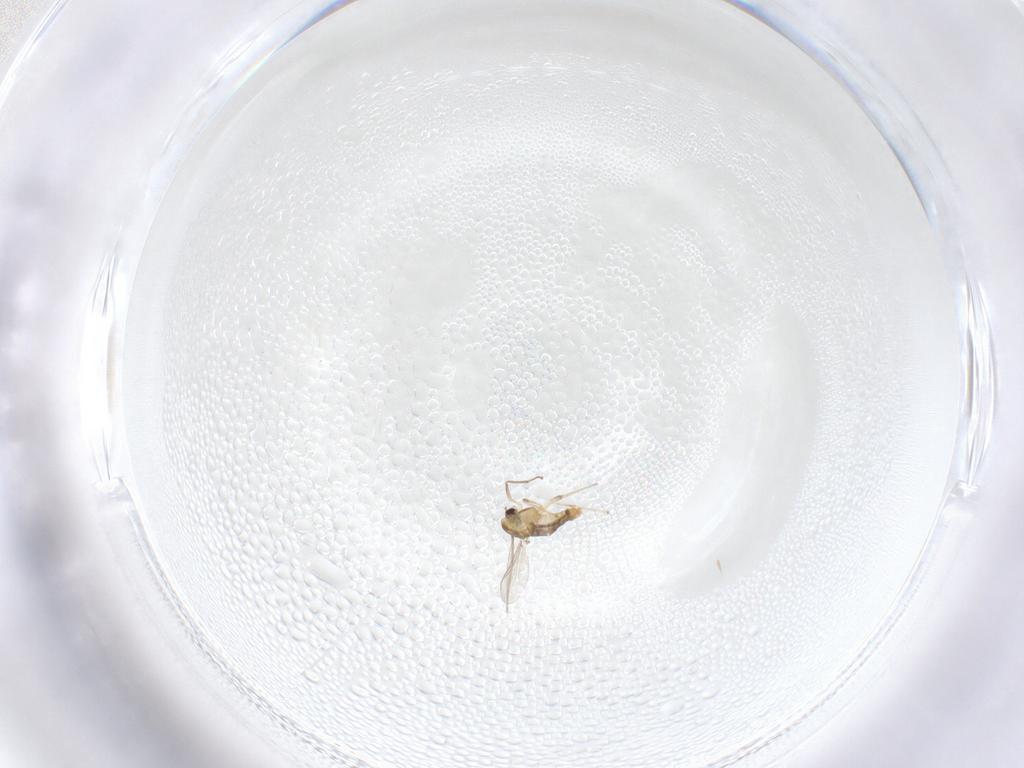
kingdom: Animalia
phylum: Arthropoda
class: Insecta
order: Diptera
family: Chironomidae
